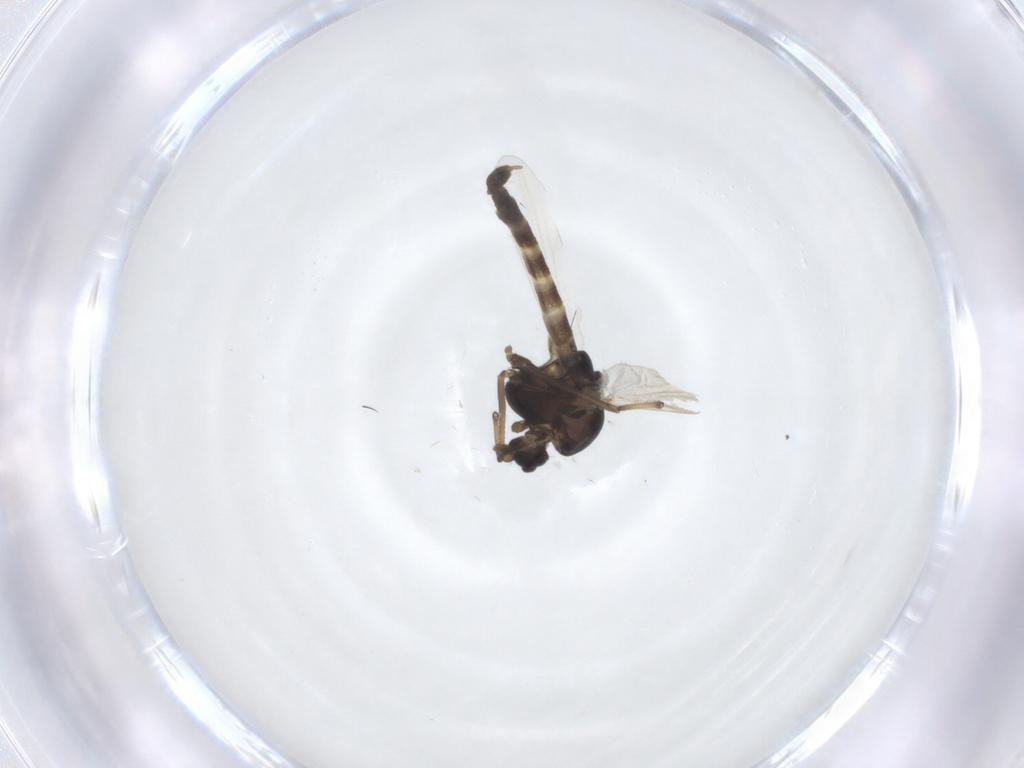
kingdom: Animalia
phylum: Arthropoda
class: Insecta
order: Diptera
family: Chironomidae
